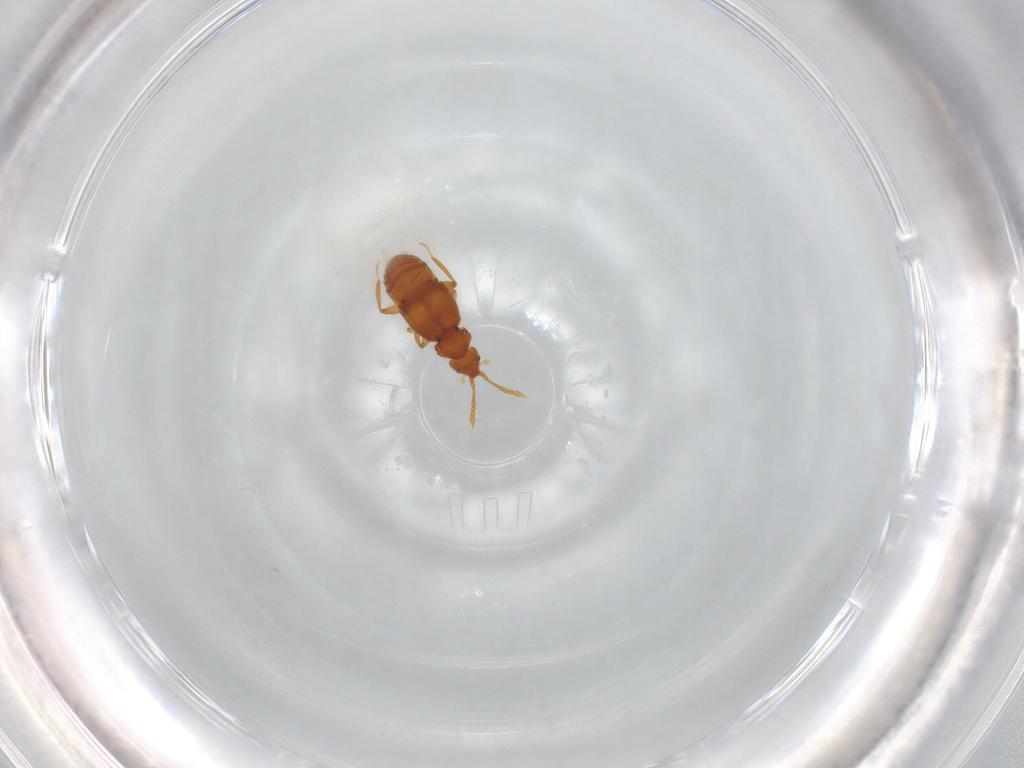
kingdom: Animalia
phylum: Arthropoda
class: Insecta
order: Coleoptera
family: Staphylinidae
